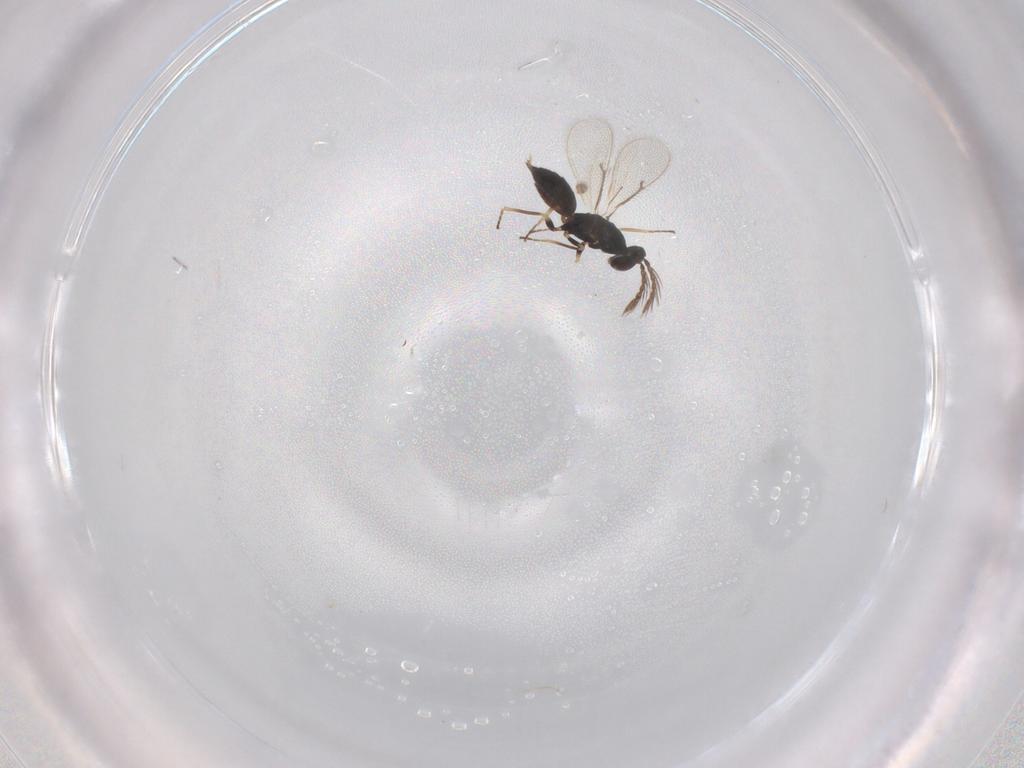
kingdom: Animalia
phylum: Arthropoda
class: Insecta
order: Hymenoptera
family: Eulophidae
